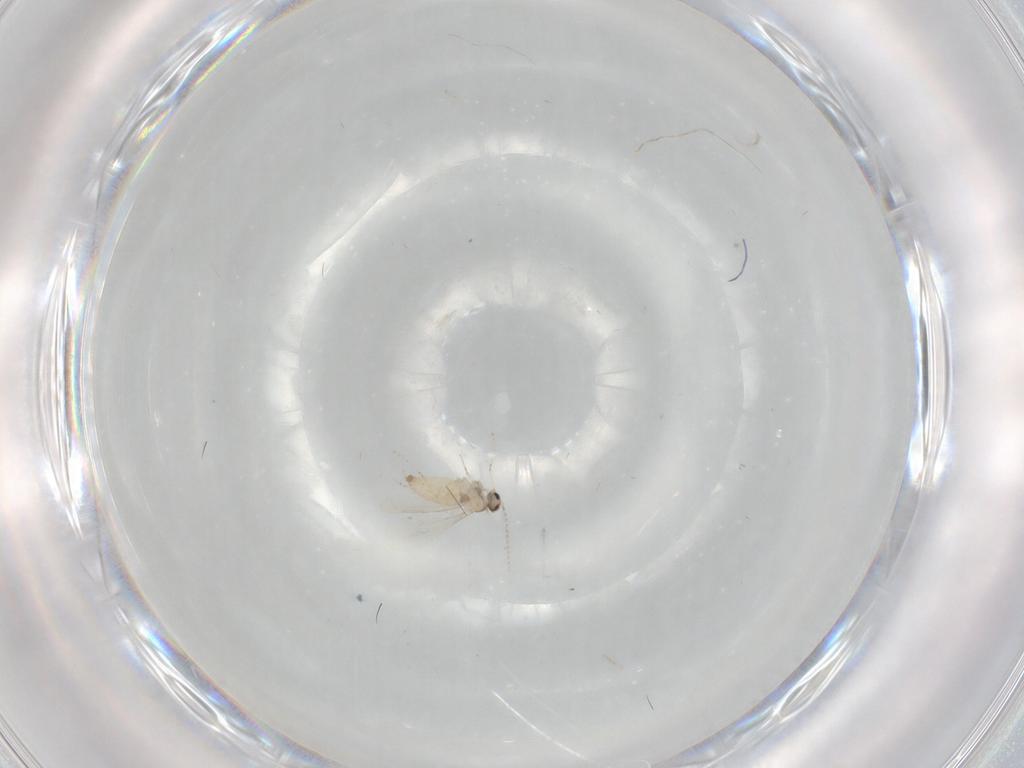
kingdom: Animalia
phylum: Arthropoda
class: Insecta
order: Diptera
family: Cecidomyiidae
